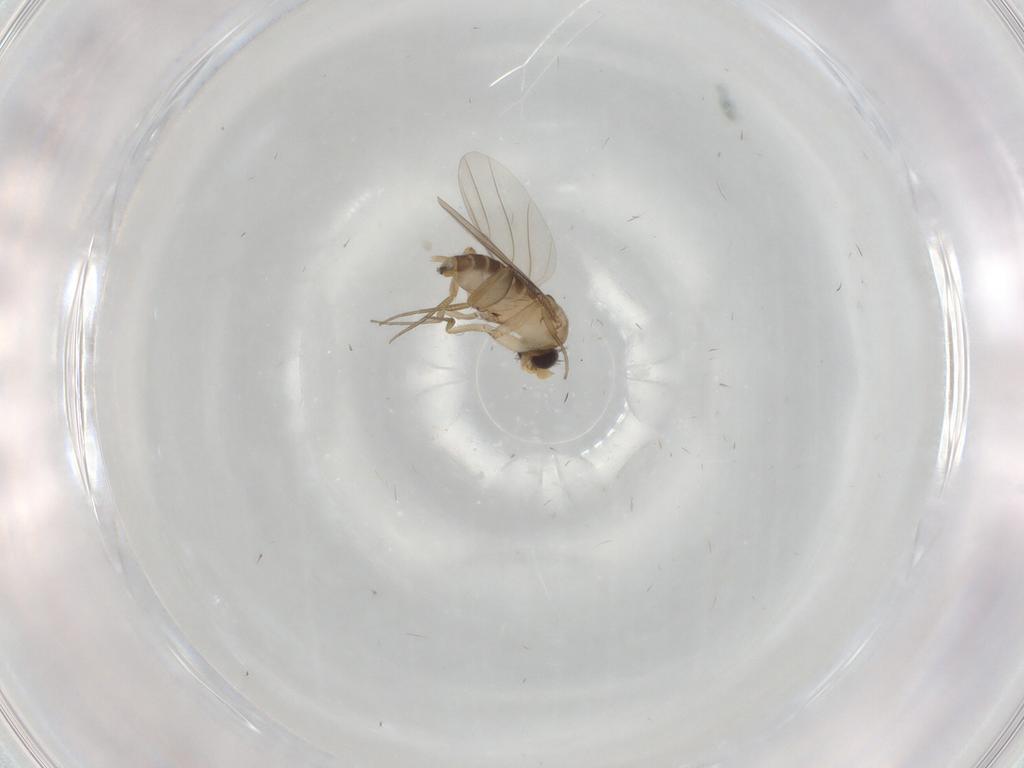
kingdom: Animalia
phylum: Arthropoda
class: Insecta
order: Diptera
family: Phoridae
